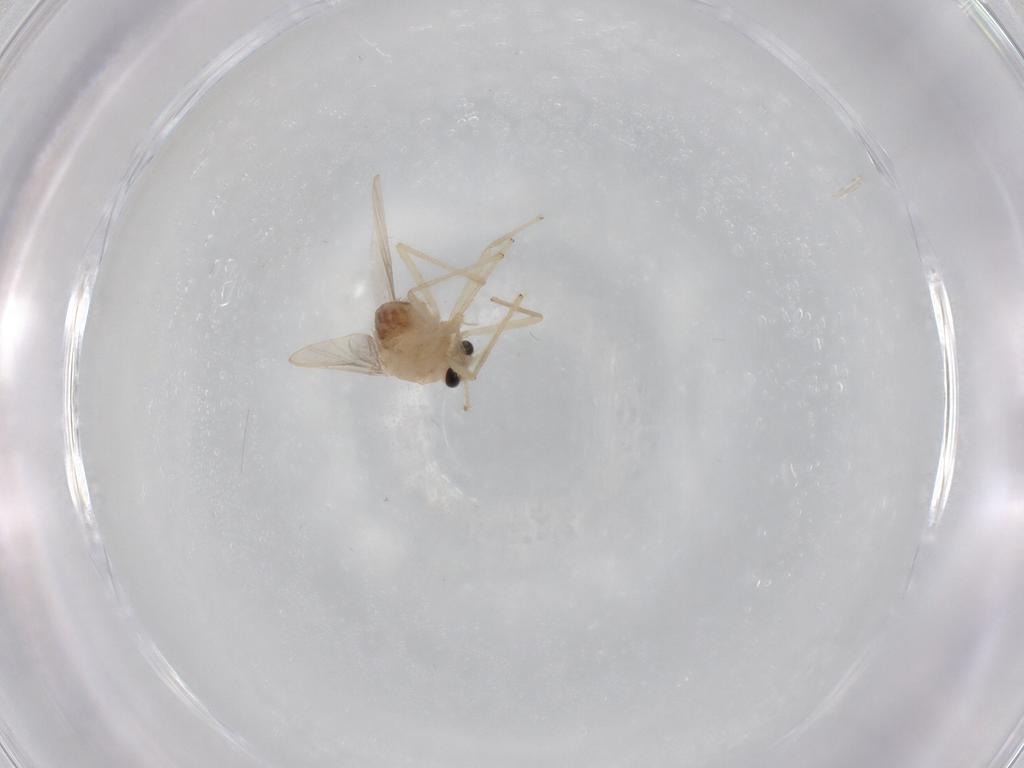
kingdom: Animalia
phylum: Arthropoda
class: Insecta
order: Diptera
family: Chironomidae
